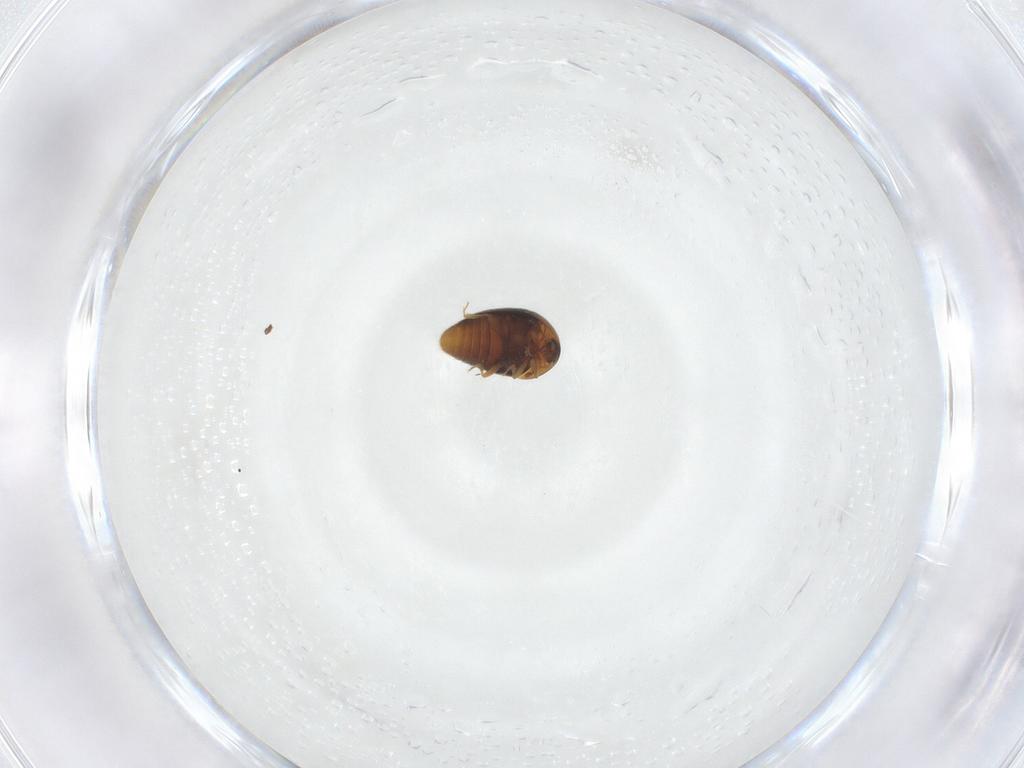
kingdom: Animalia
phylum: Arthropoda
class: Insecta
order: Coleoptera
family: Corylophidae
